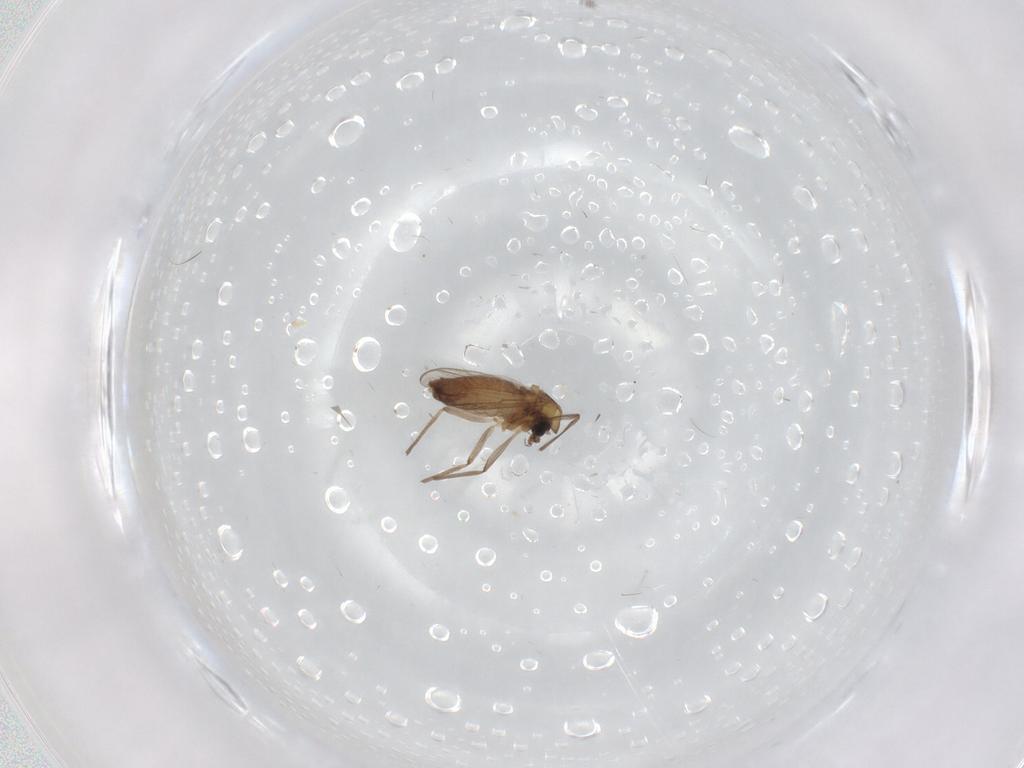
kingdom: Animalia
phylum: Arthropoda
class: Insecta
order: Diptera
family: Chironomidae
